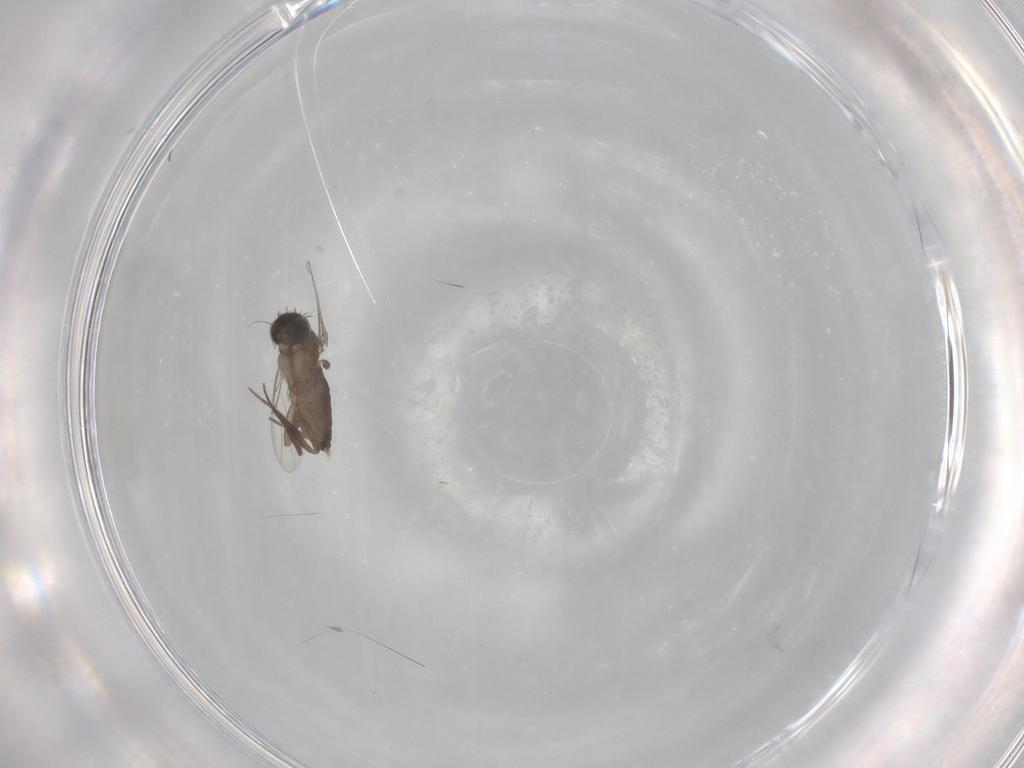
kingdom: Animalia
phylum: Arthropoda
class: Insecta
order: Diptera
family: Phoridae
